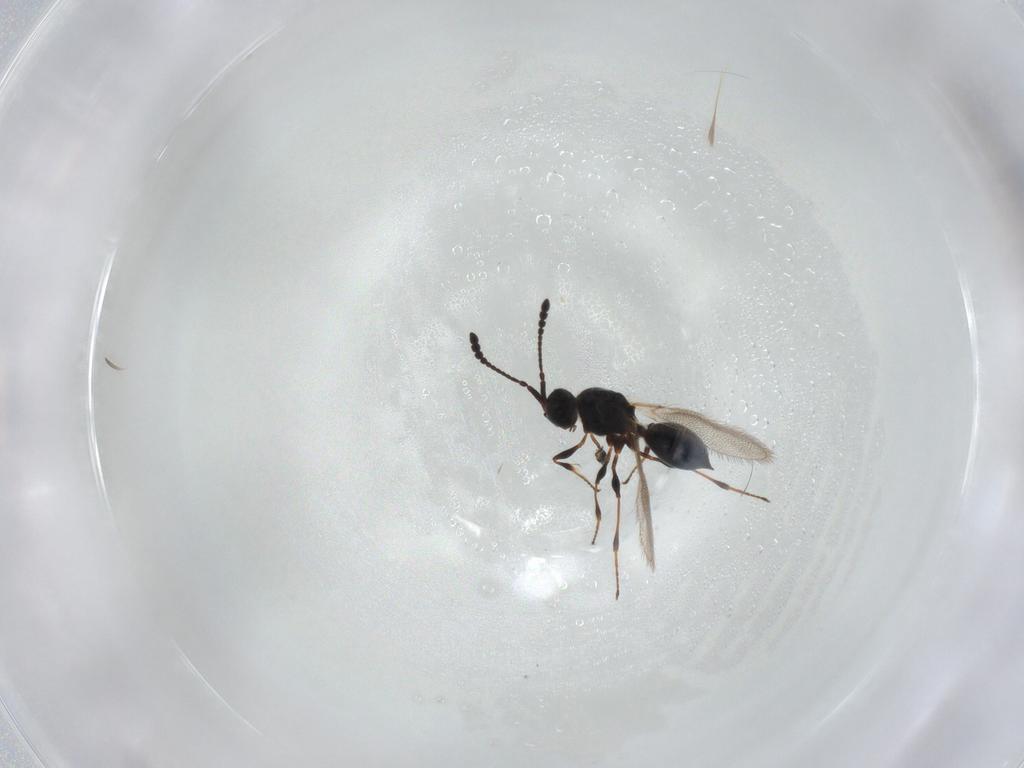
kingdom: Animalia
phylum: Arthropoda
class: Insecta
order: Hymenoptera
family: Diapriidae
